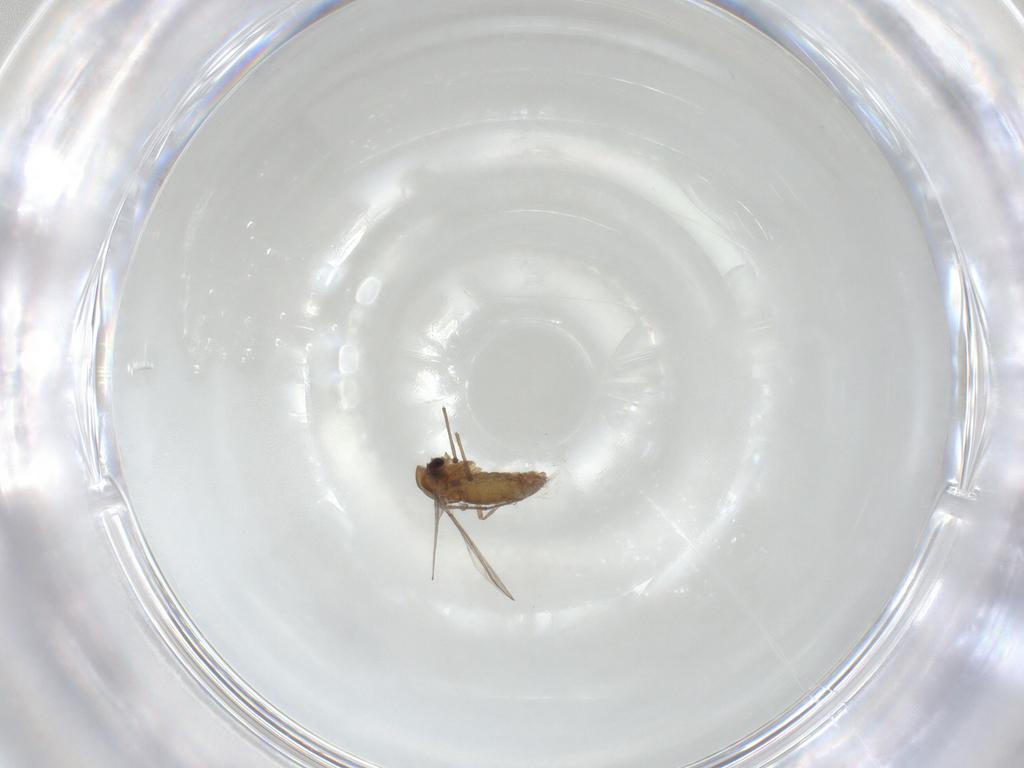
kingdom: Animalia
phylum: Arthropoda
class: Insecta
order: Diptera
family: Chironomidae
